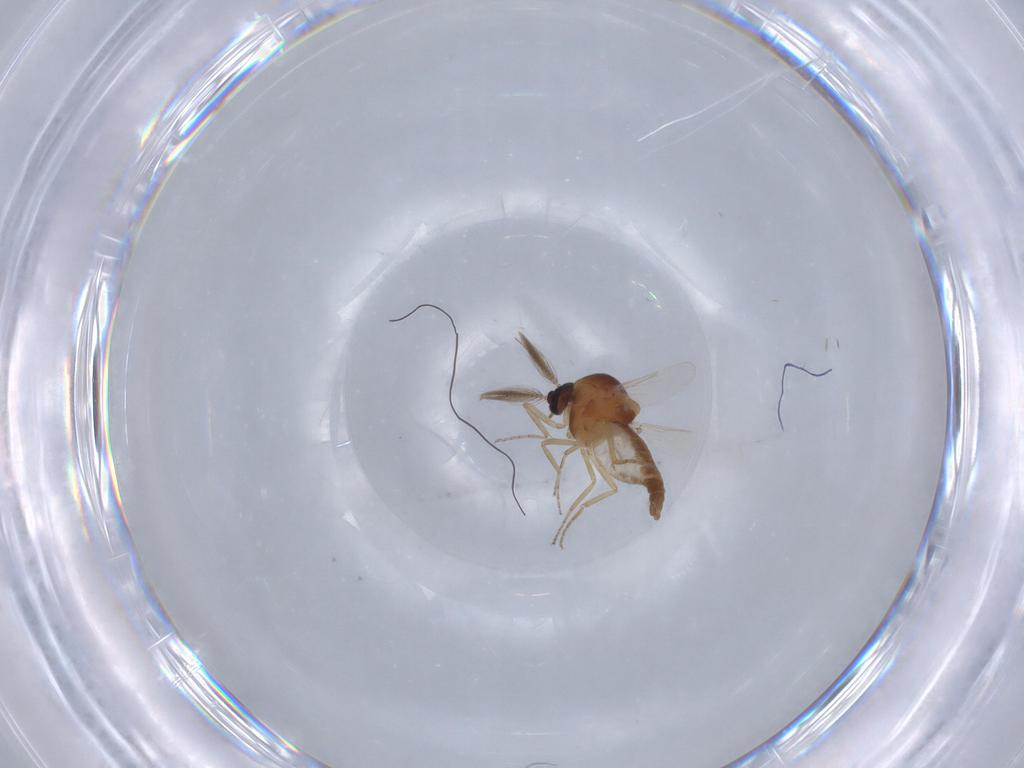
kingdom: Animalia
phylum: Arthropoda
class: Insecta
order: Diptera
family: Ceratopogonidae
